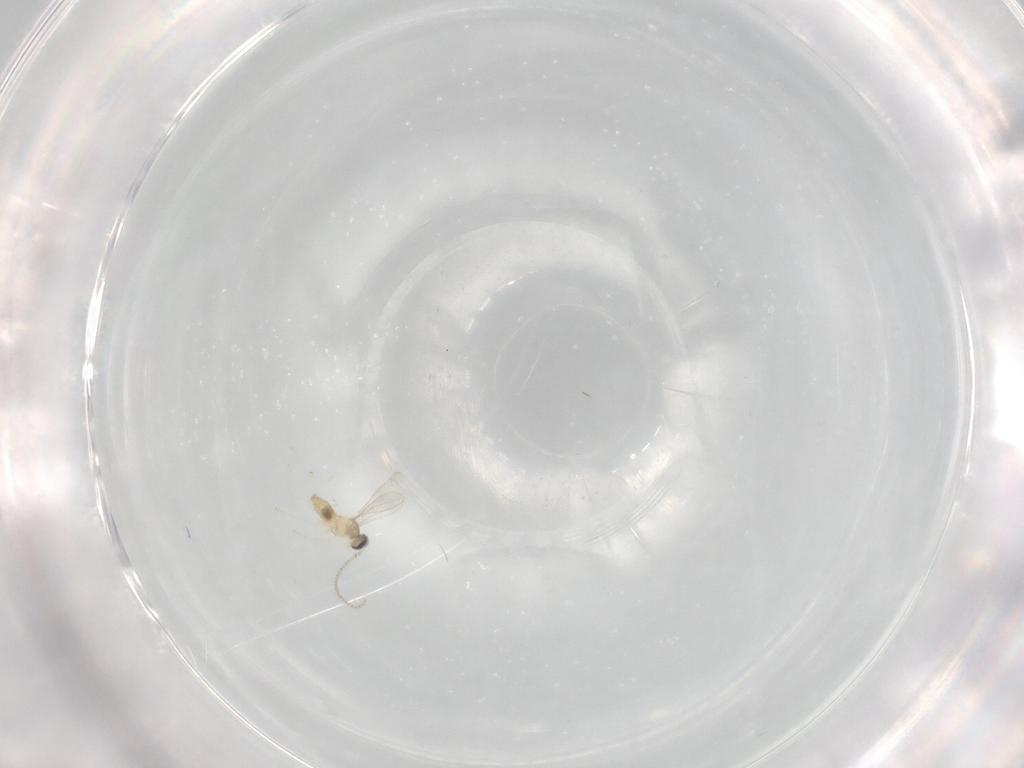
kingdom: Animalia
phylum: Arthropoda
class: Insecta
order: Diptera
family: Cecidomyiidae
